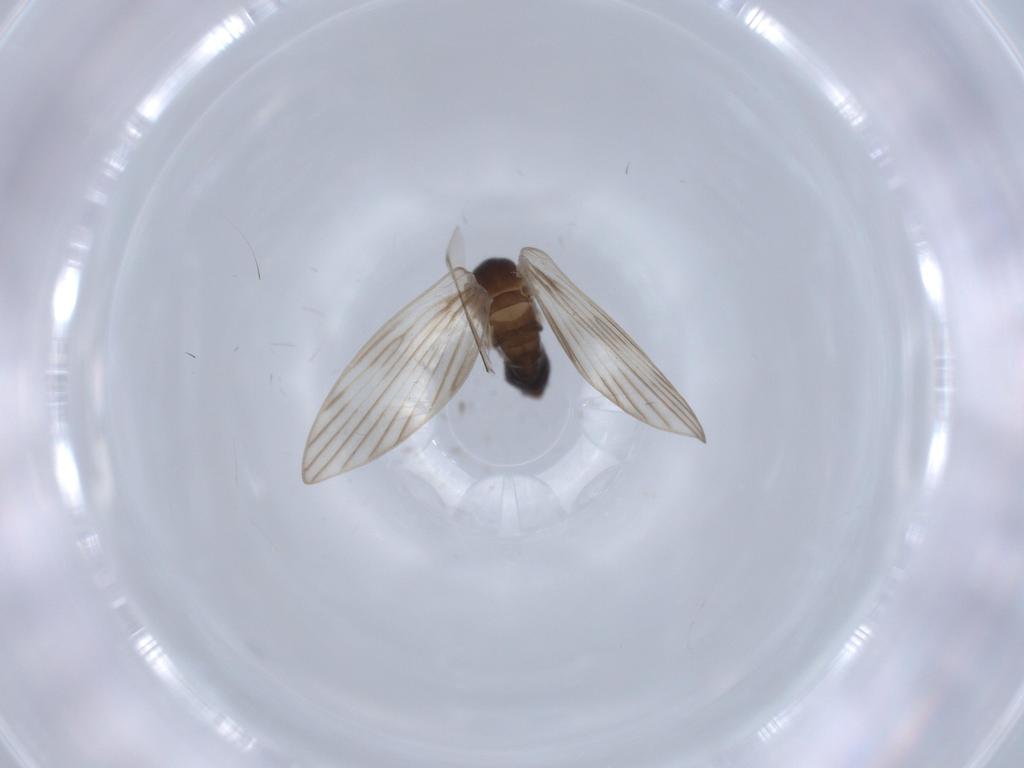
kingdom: Animalia
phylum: Arthropoda
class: Insecta
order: Diptera
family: Psychodidae
